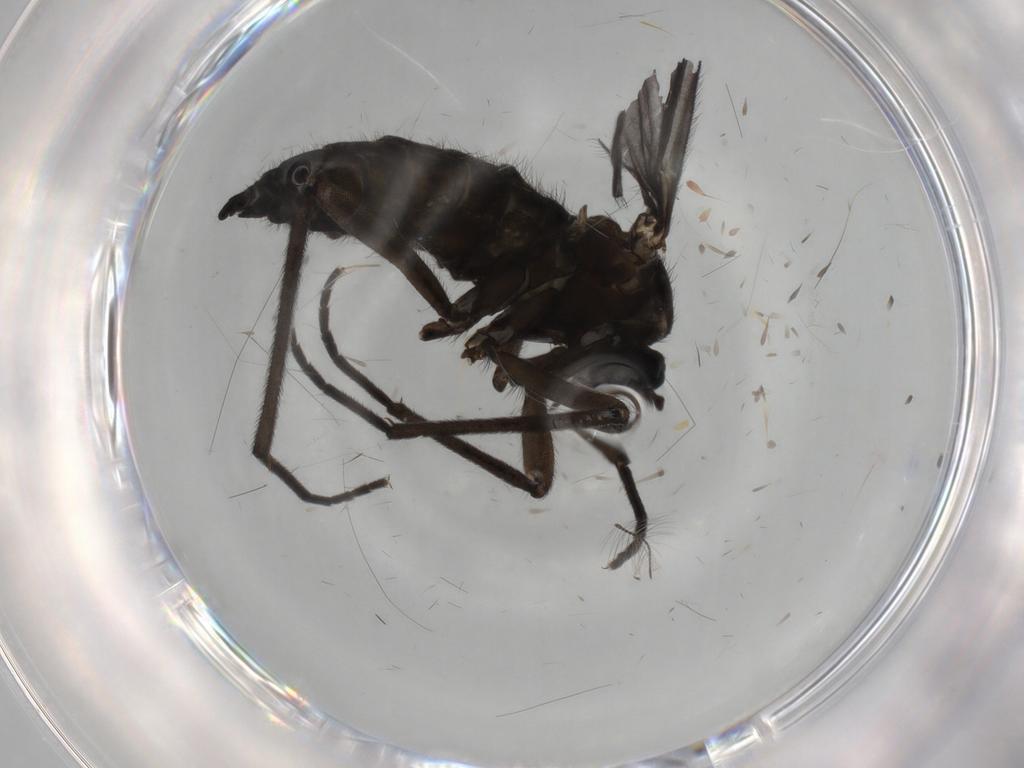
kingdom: Animalia
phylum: Arthropoda
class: Insecta
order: Diptera
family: Sciaridae
